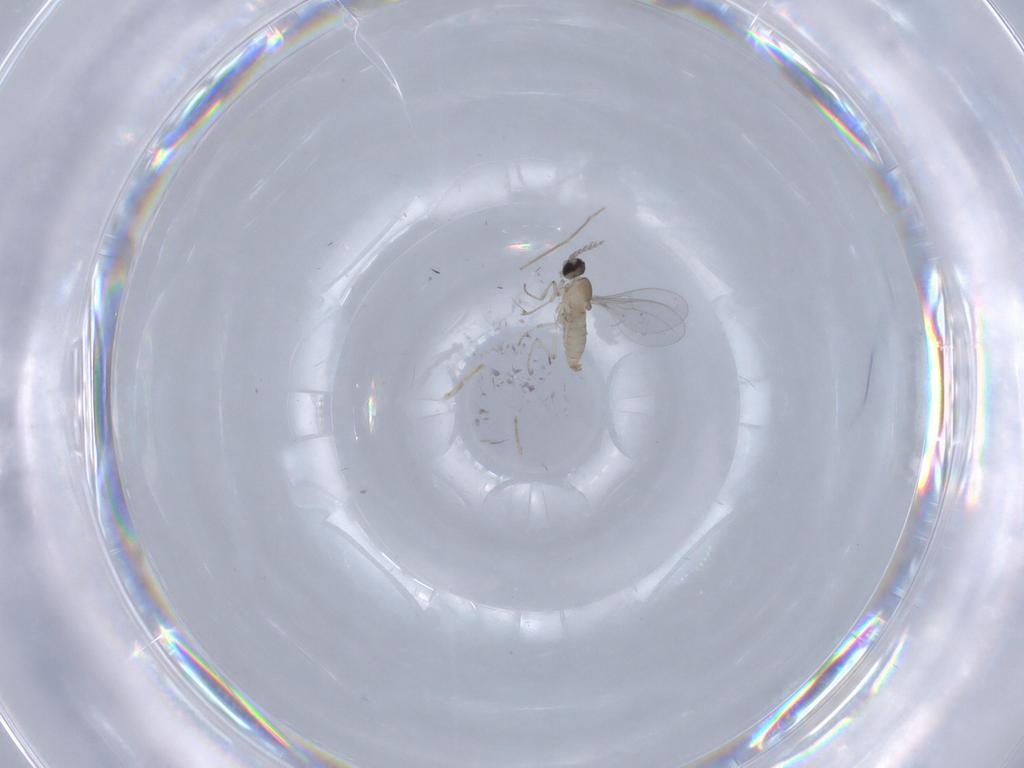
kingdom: Animalia
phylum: Arthropoda
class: Insecta
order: Diptera
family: Cecidomyiidae
